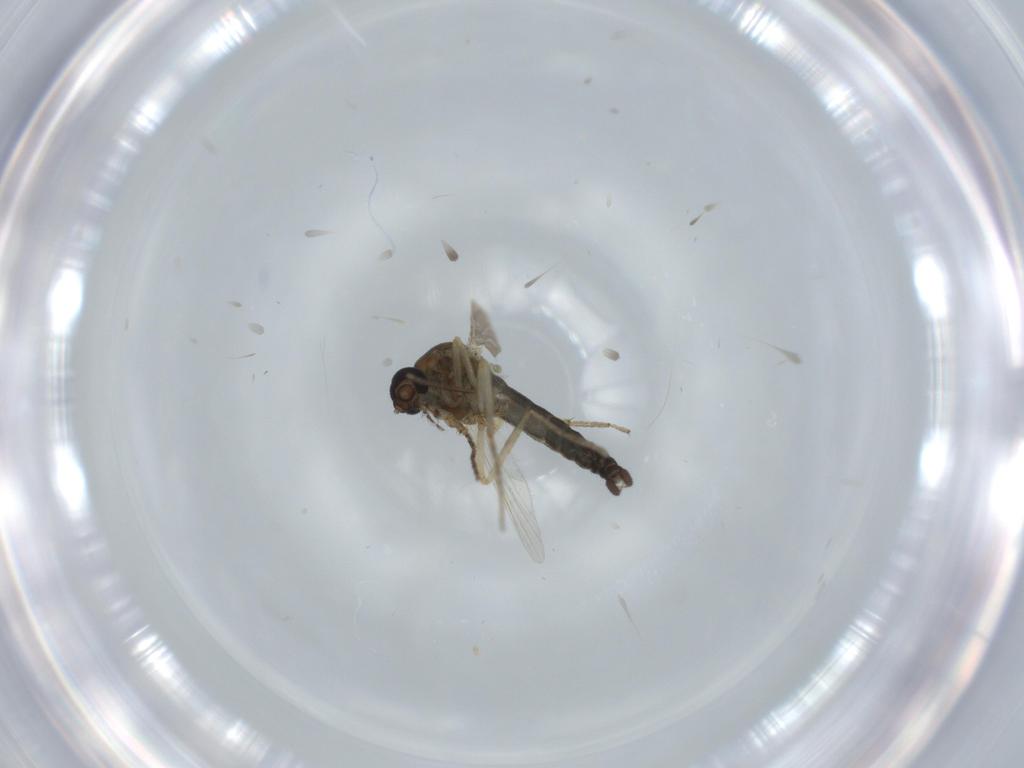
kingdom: Animalia
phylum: Arthropoda
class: Insecta
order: Diptera
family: Ceratopogonidae
